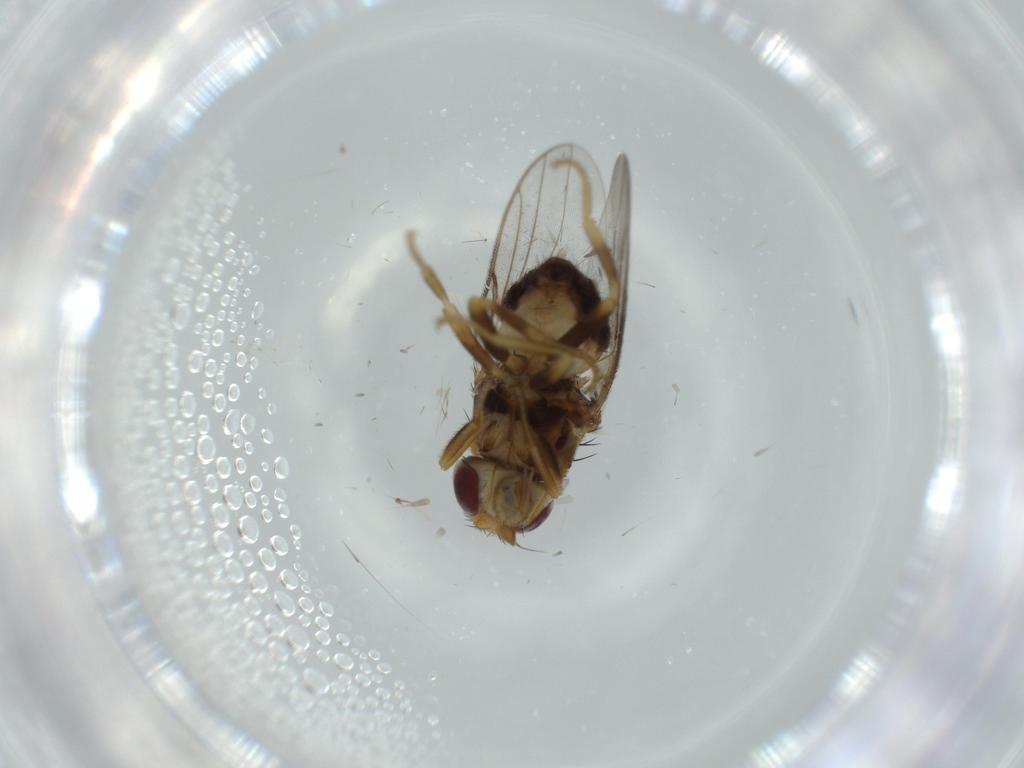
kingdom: Animalia
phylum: Arthropoda
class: Insecta
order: Diptera
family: Chloropidae
